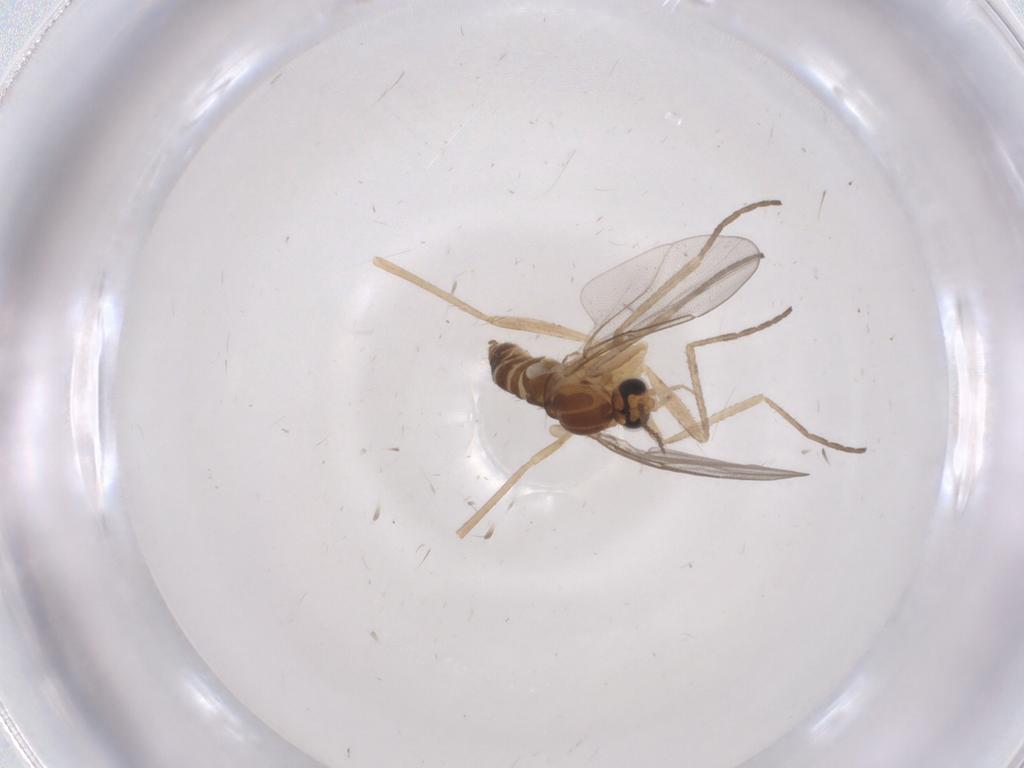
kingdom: Animalia
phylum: Arthropoda
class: Insecta
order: Diptera
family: Cecidomyiidae
